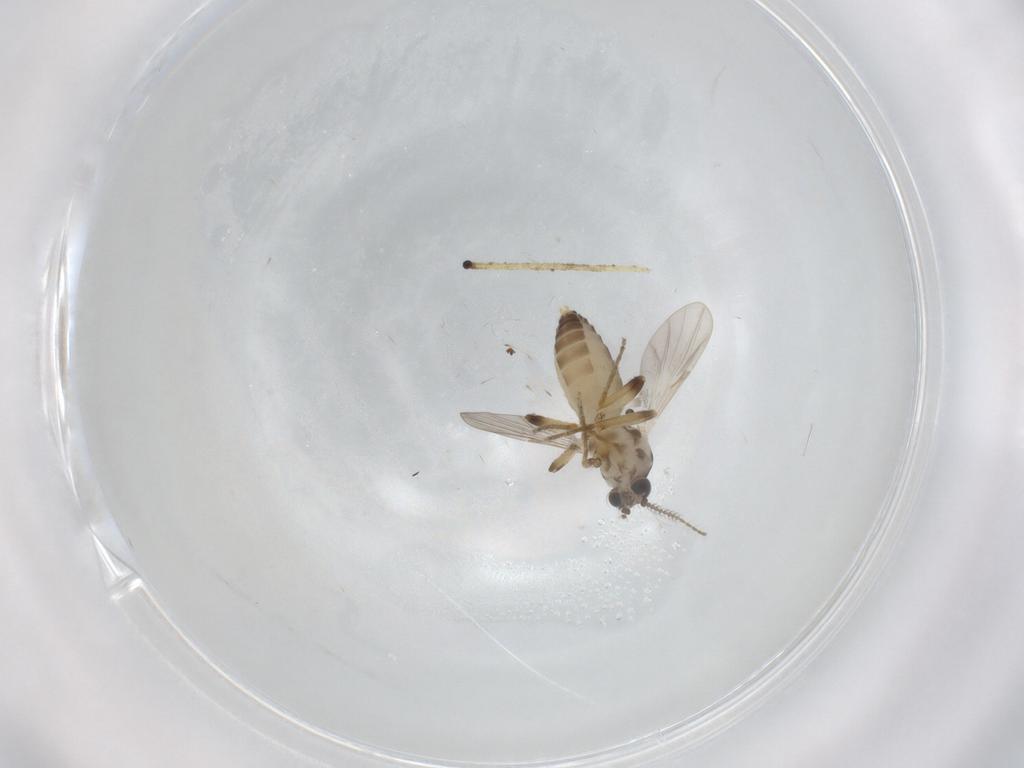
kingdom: Animalia
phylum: Arthropoda
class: Insecta
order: Diptera
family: Ceratopogonidae
